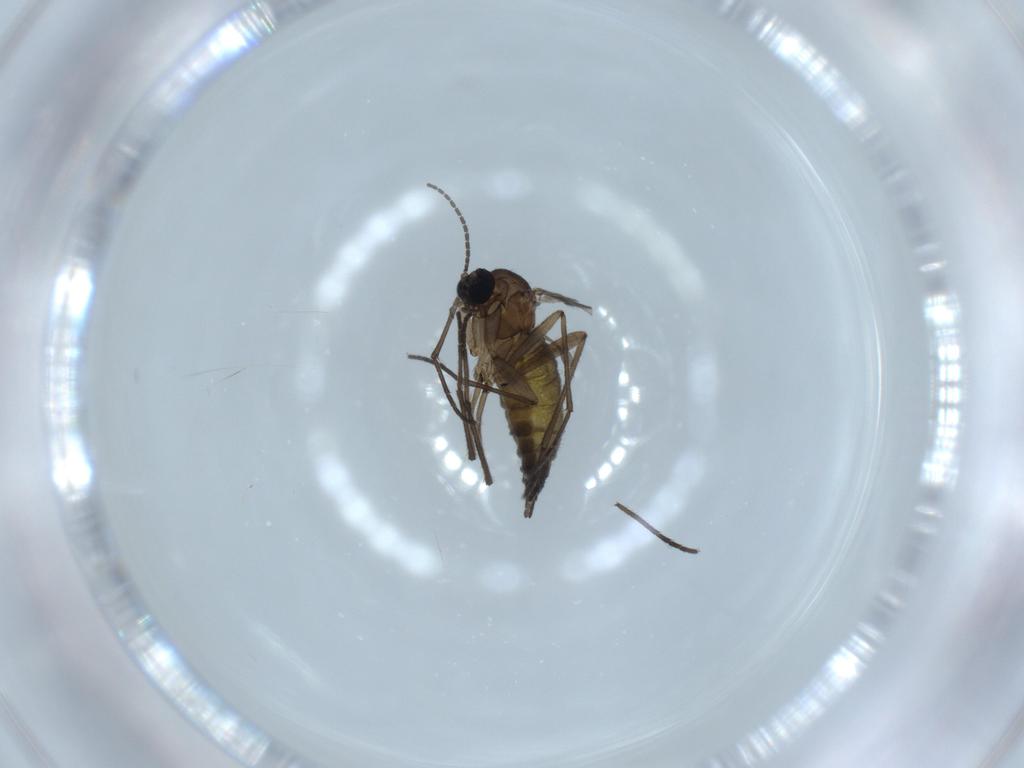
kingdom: Animalia
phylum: Arthropoda
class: Insecta
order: Diptera
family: Sciaridae
